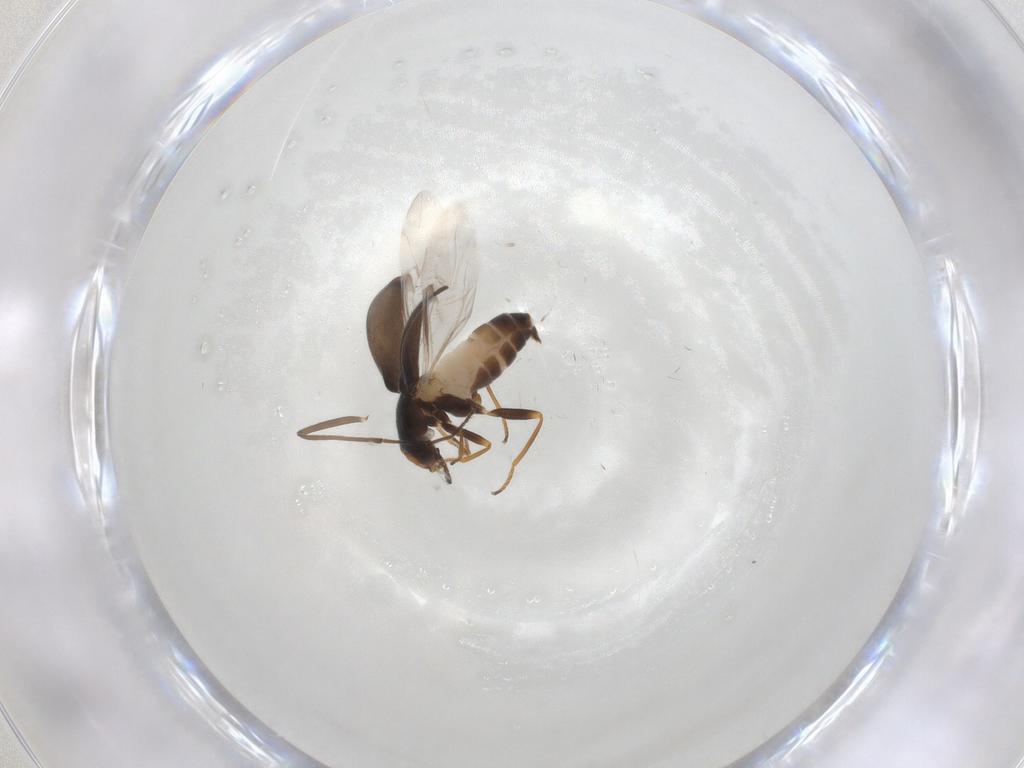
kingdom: Animalia
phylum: Arthropoda
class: Insecta
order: Coleoptera
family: Melyridae
